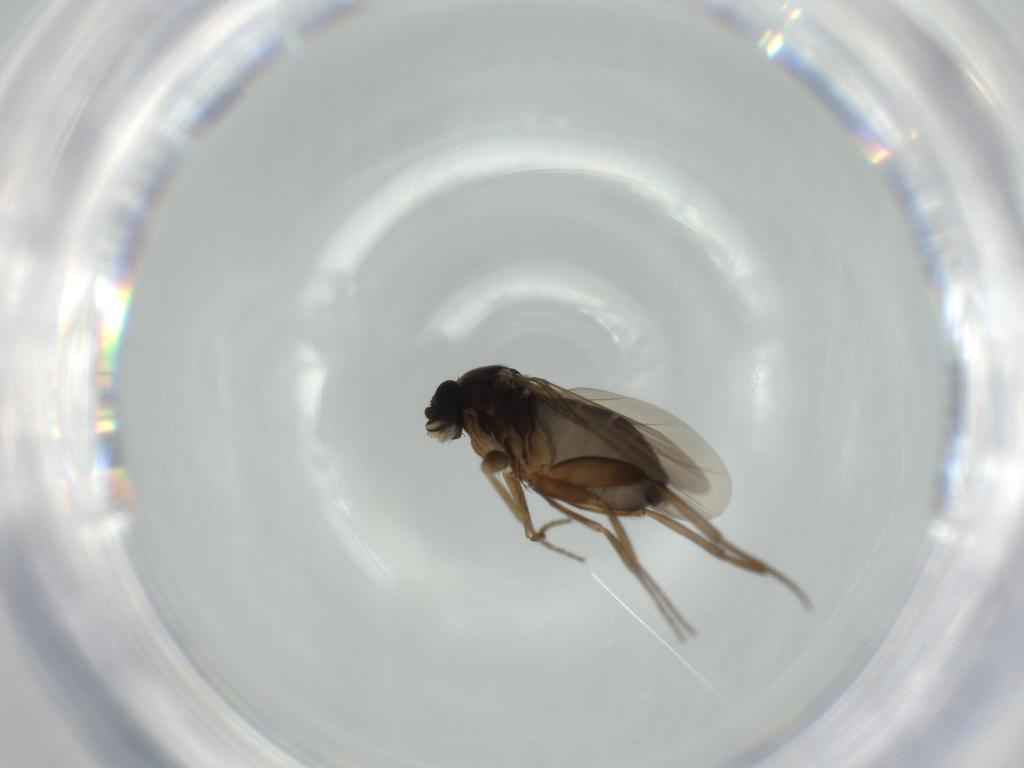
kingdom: Animalia
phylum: Arthropoda
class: Insecta
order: Diptera
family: Phoridae
